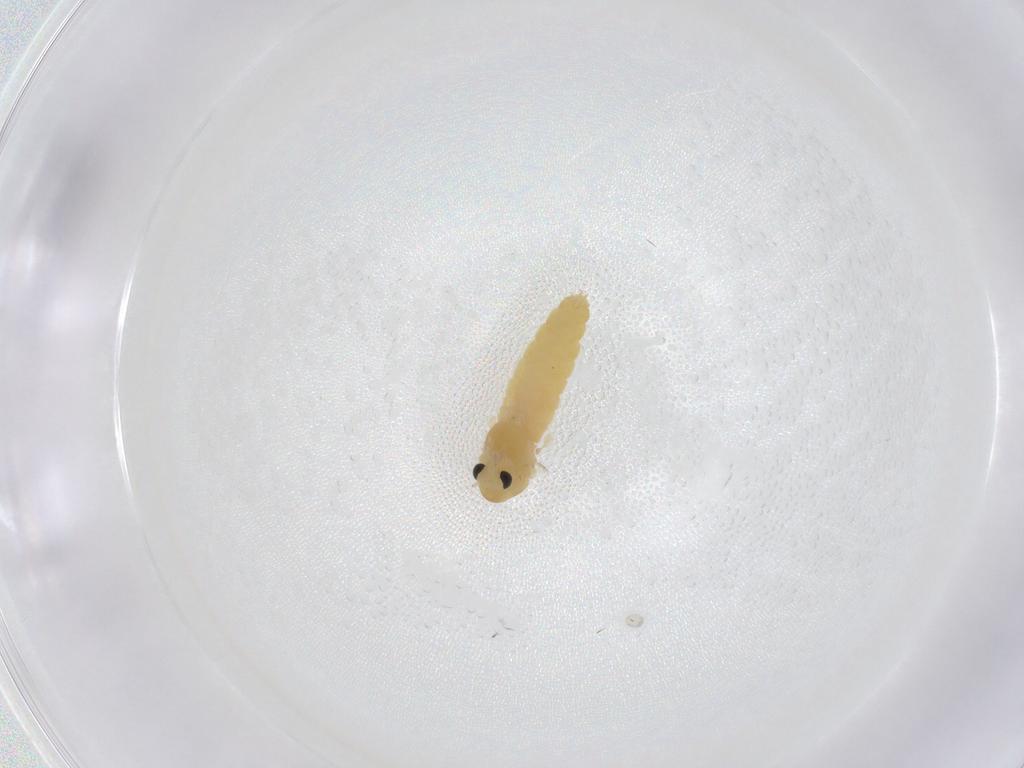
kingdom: Animalia
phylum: Arthropoda
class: Insecta
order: Diptera
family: Chironomidae
